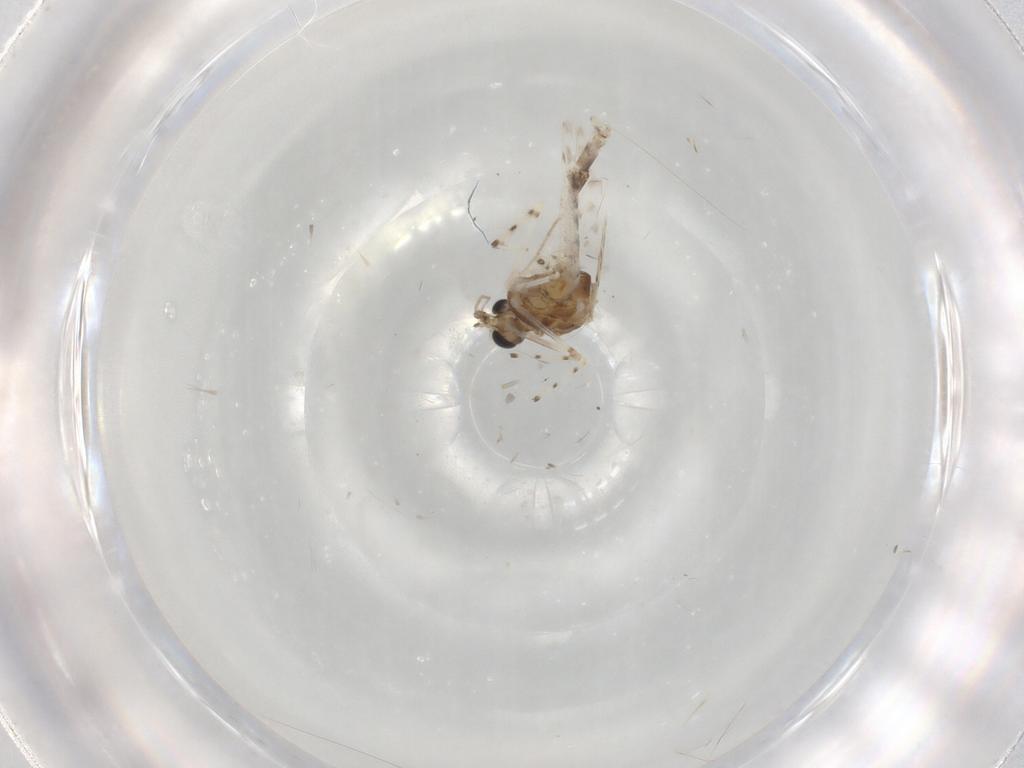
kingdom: Animalia
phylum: Arthropoda
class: Insecta
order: Diptera
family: Chironomidae
